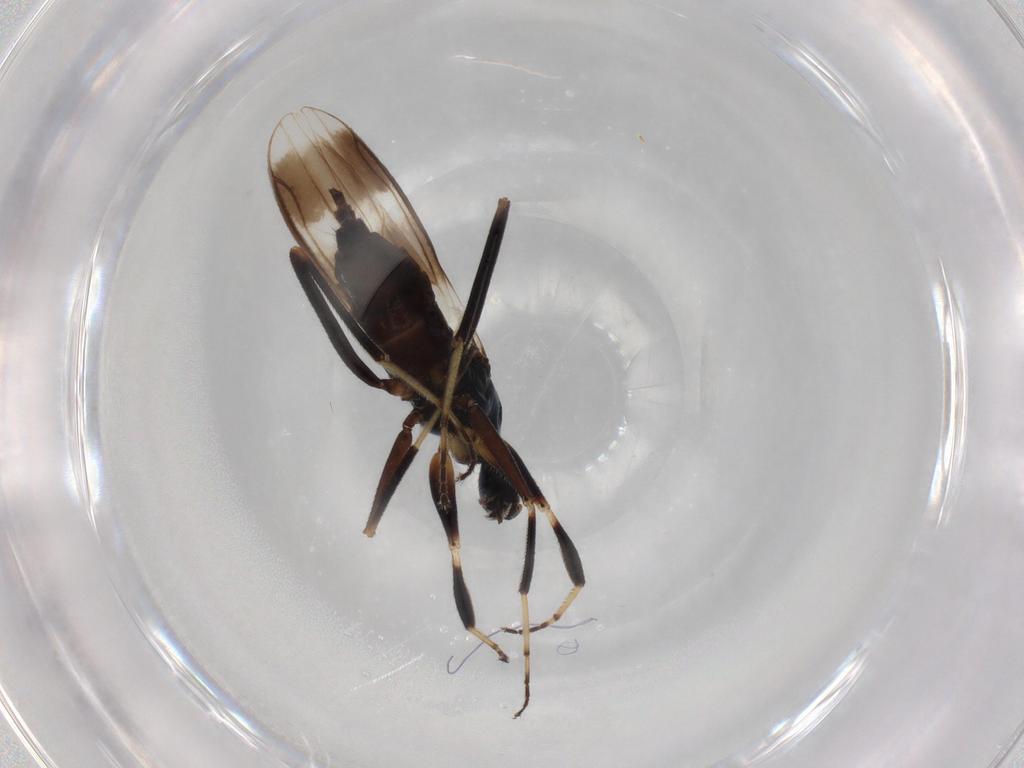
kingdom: Animalia
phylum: Arthropoda
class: Insecta
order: Diptera
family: Hybotidae
